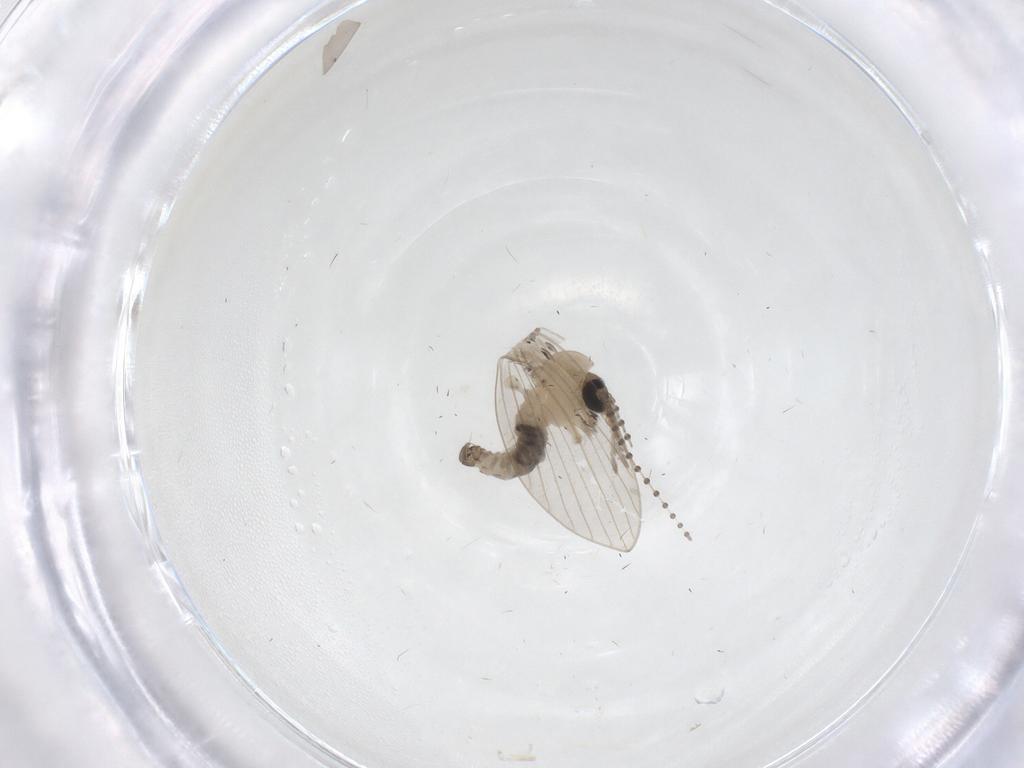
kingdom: Animalia
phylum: Arthropoda
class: Insecta
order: Diptera
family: Psychodidae
